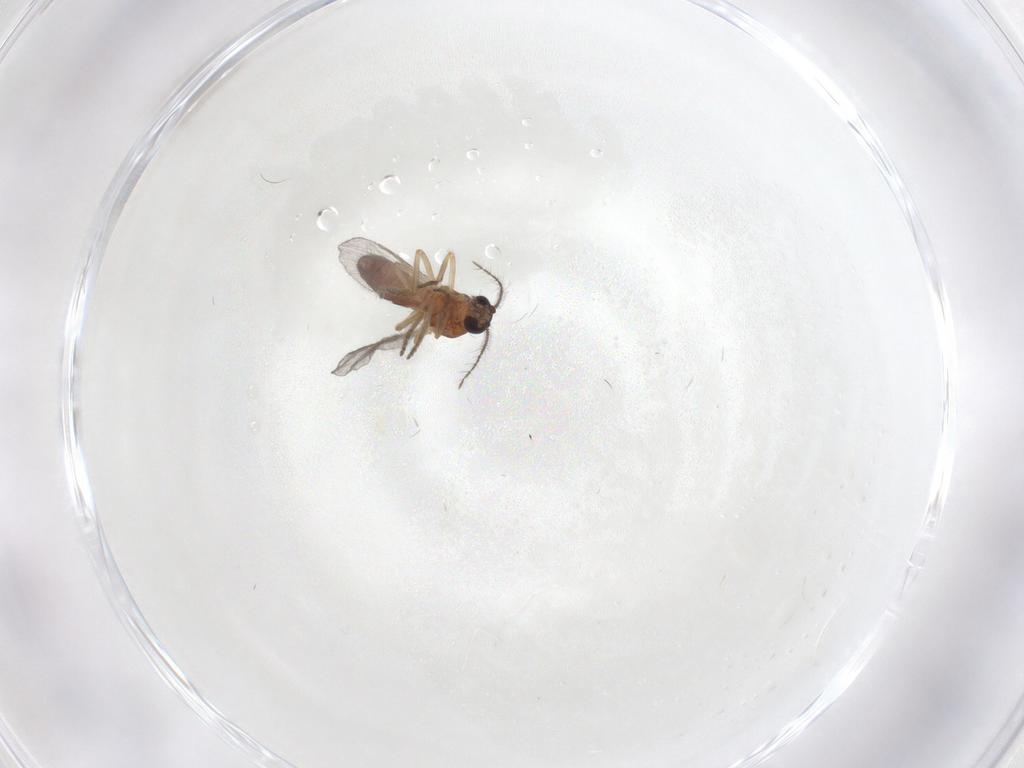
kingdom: Animalia
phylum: Arthropoda
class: Insecta
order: Diptera
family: Ceratopogonidae
